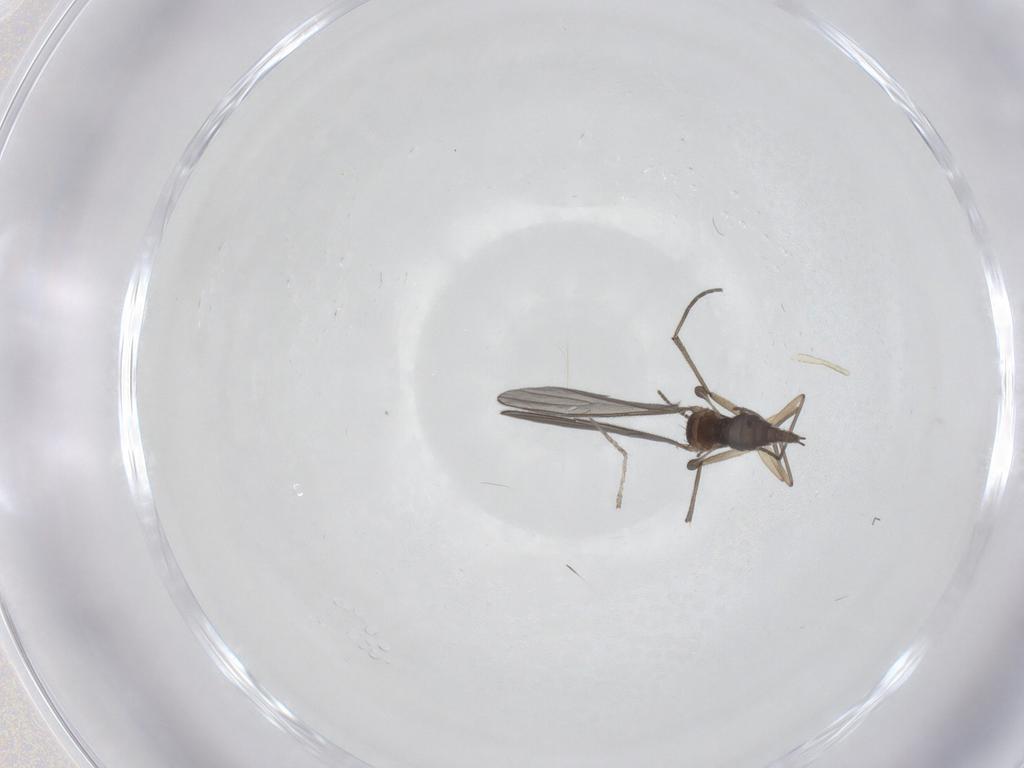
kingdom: Animalia
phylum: Arthropoda
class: Insecta
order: Diptera
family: Sciaridae
